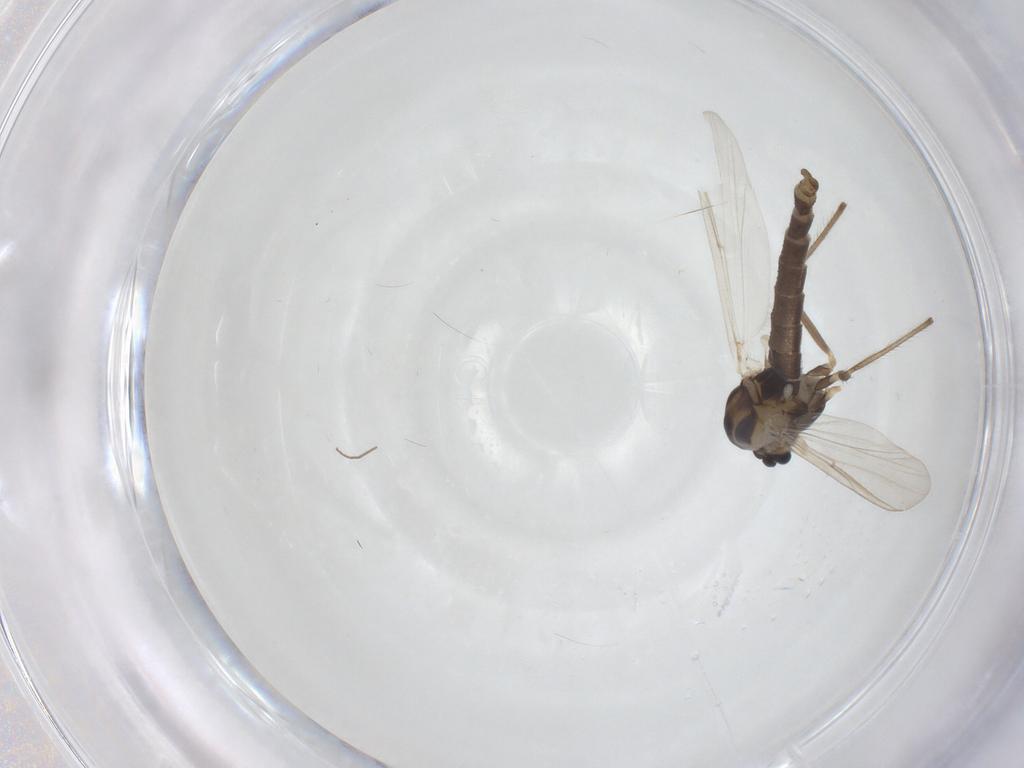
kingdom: Animalia
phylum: Arthropoda
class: Insecta
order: Diptera
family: Chironomidae
